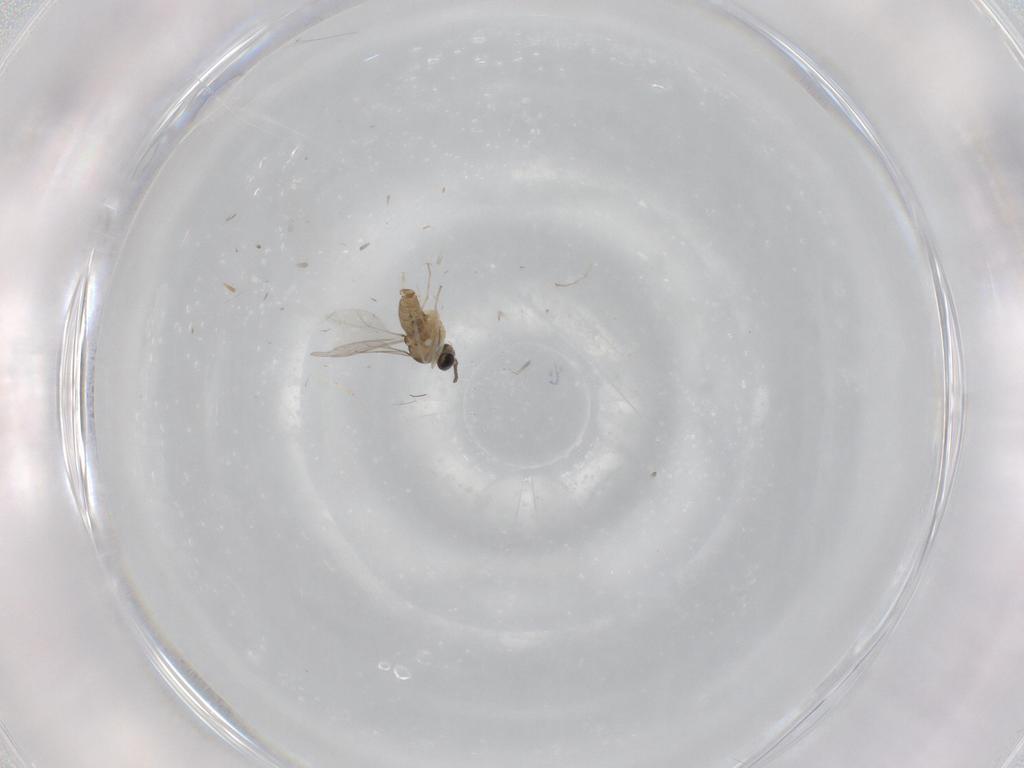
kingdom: Animalia
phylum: Arthropoda
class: Insecta
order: Diptera
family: Cecidomyiidae
